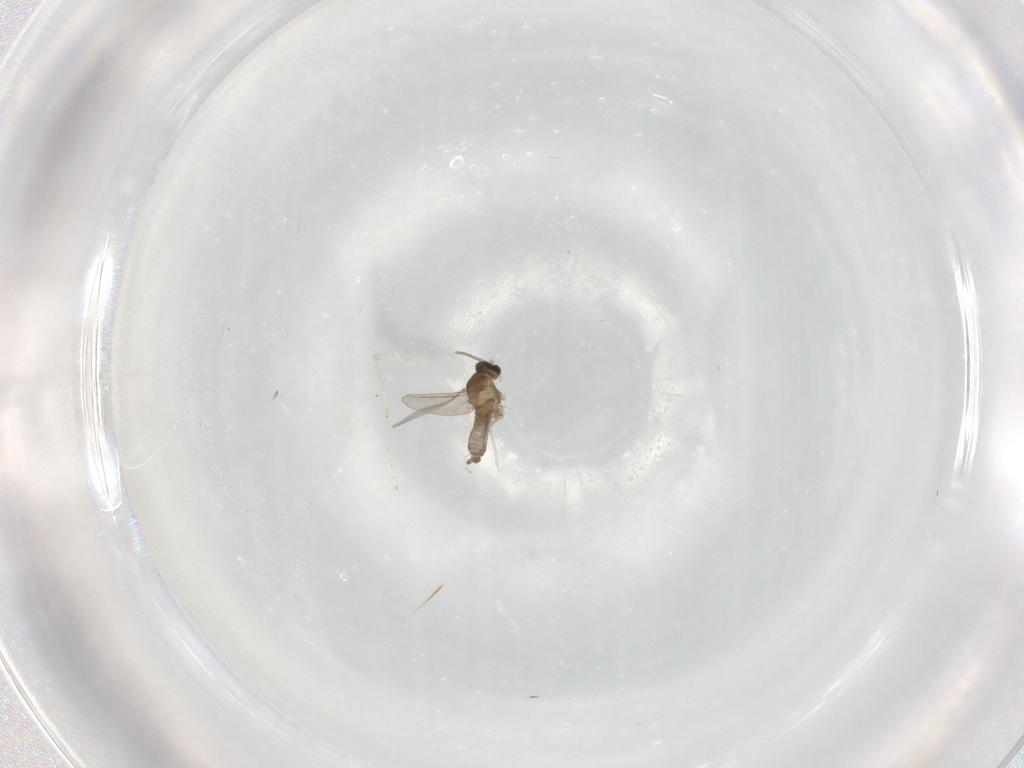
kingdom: Animalia
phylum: Arthropoda
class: Insecta
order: Diptera
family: Cecidomyiidae
